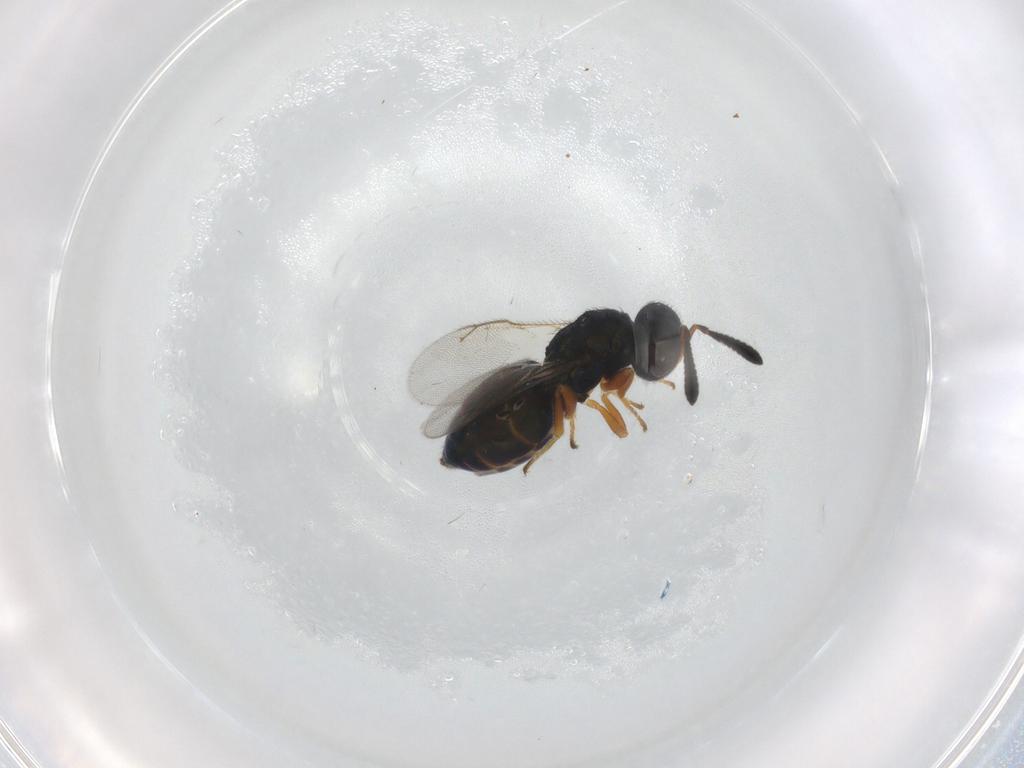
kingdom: Animalia
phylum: Arthropoda
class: Insecta
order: Hymenoptera
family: Pteromalidae
